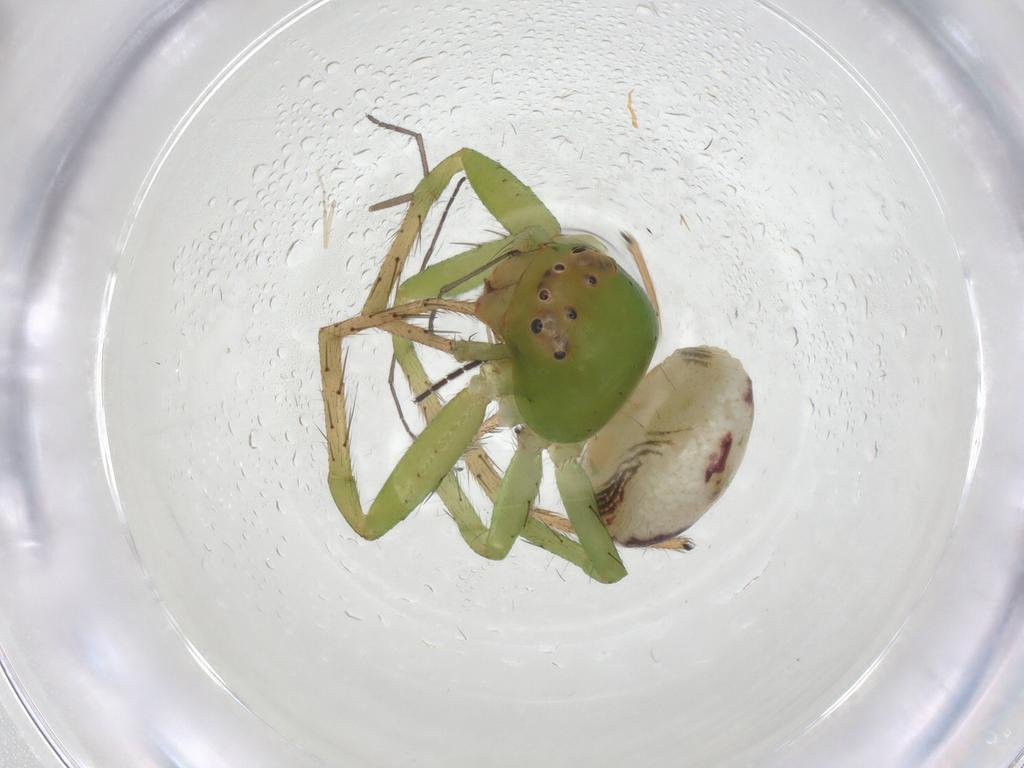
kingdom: Animalia
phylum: Arthropoda
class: Arachnida
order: Araneae
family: Thomisidae
